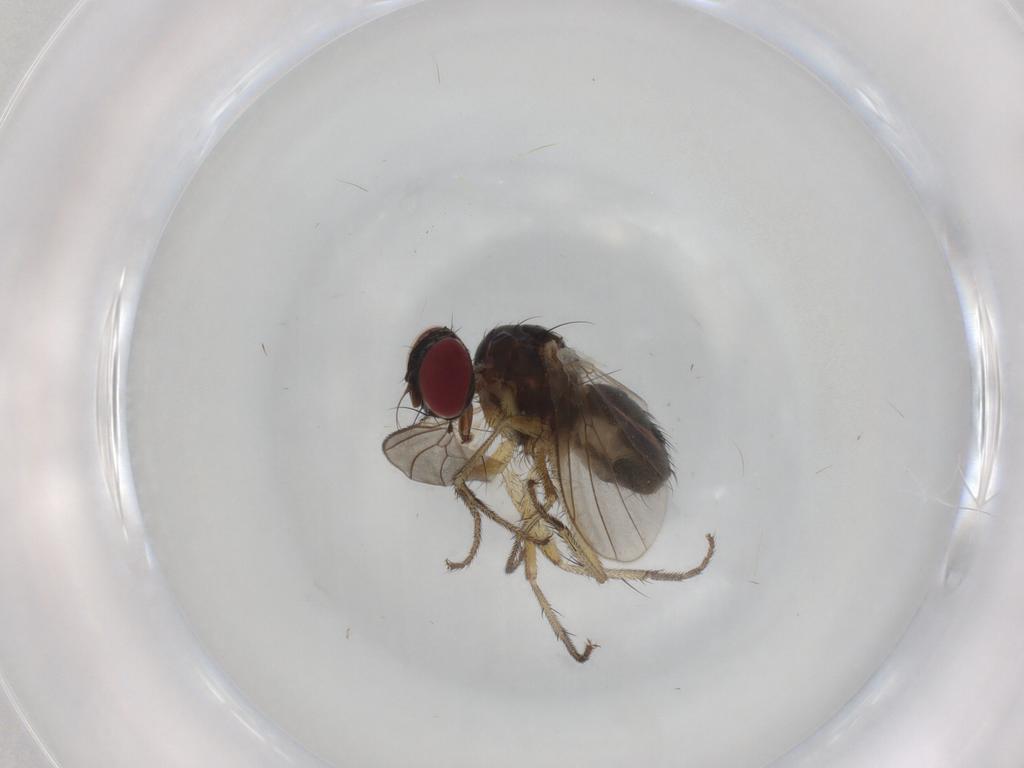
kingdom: Animalia
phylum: Arthropoda
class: Insecta
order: Diptera
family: Muscidae
